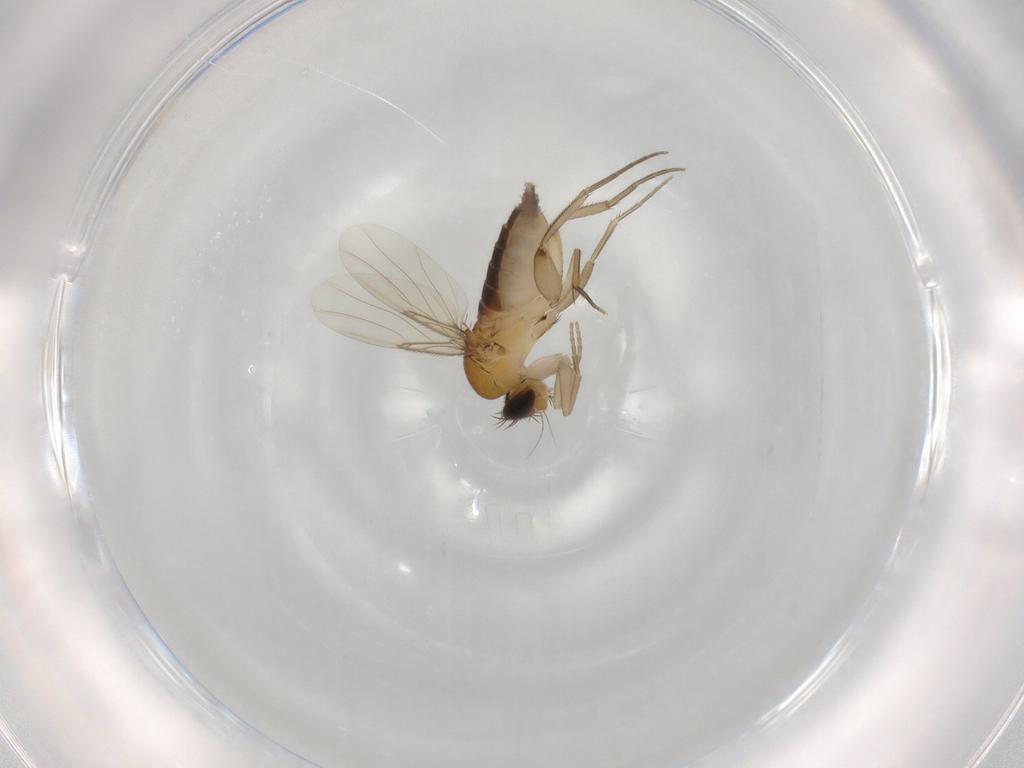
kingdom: Animalia
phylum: Arthropoda
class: Insecta
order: Diptera
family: Phoridae
